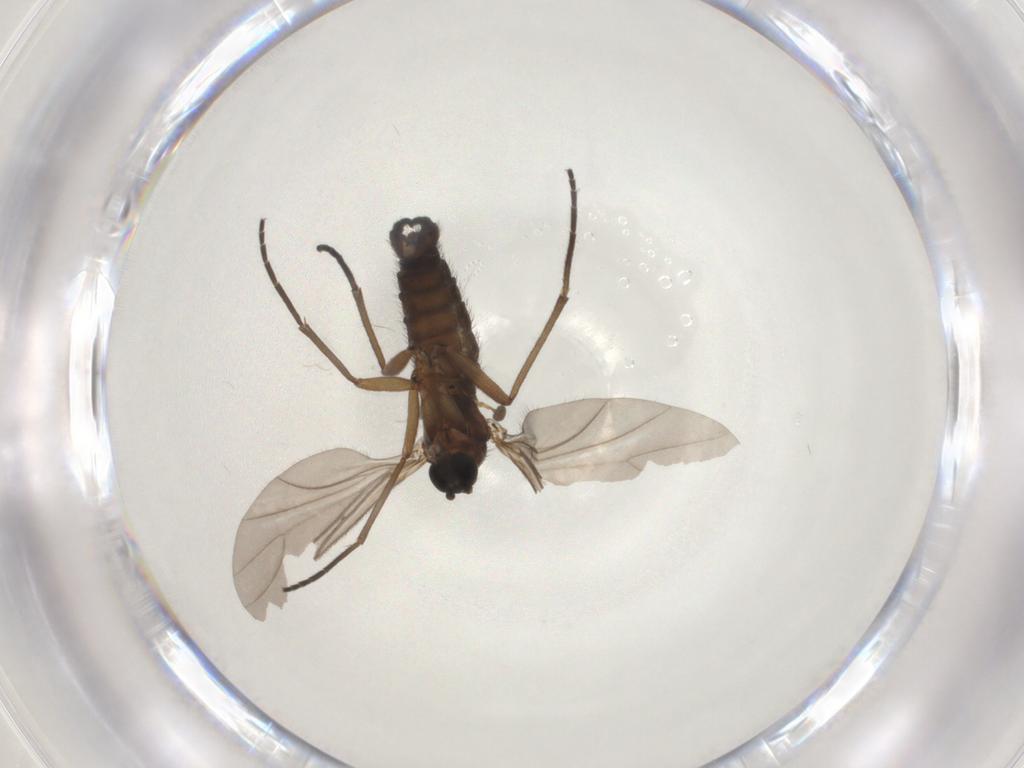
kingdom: Animalia
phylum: Arthropoda
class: Insecta
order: Diptera
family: Sciaridae
